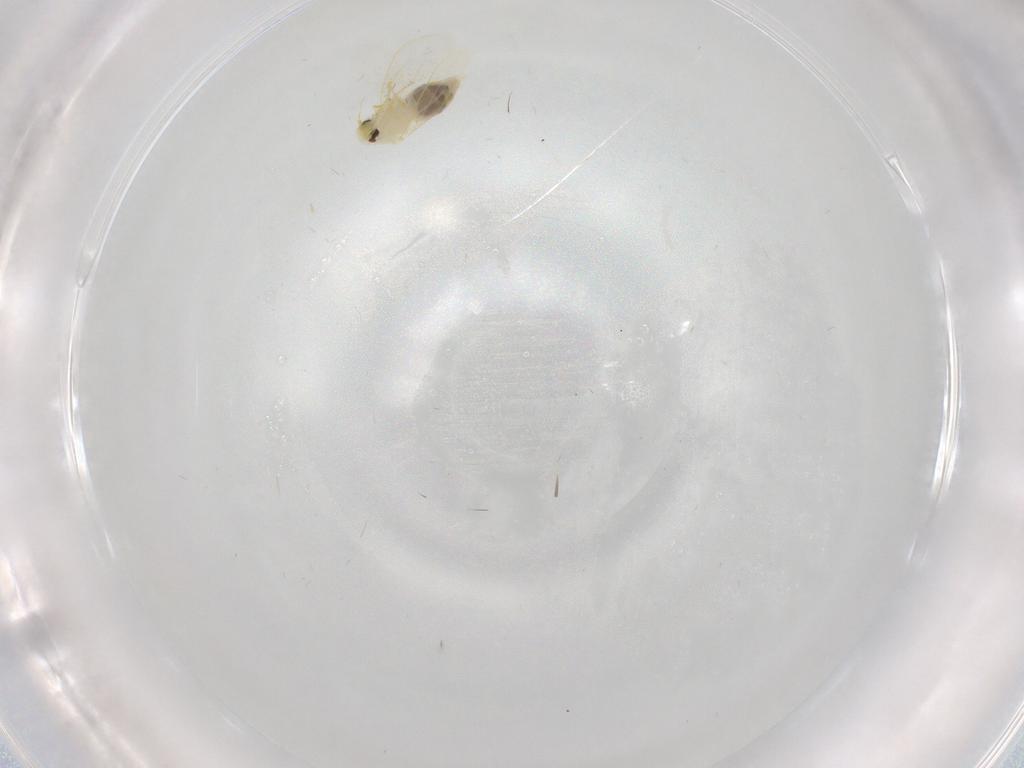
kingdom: Animalia
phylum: Arthropoda
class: Insecta
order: Hemiptera
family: Aleyrodidae
